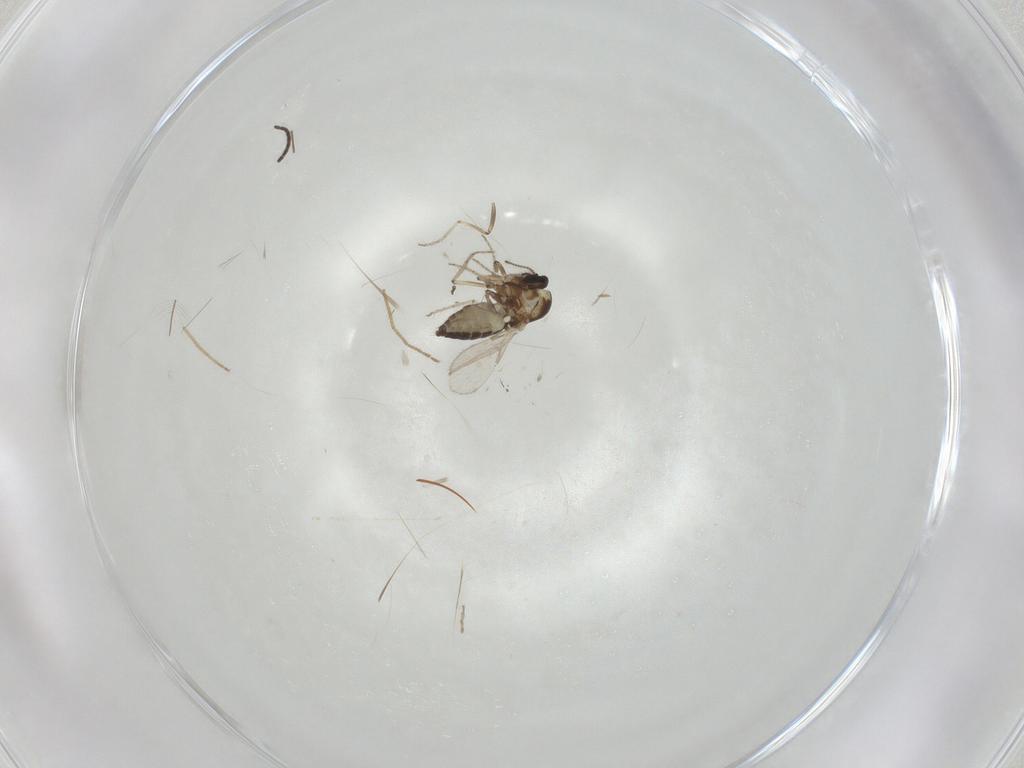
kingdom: Animalia
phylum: Arthropoda
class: Insecta
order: Diptera
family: Ceratopogonidae
